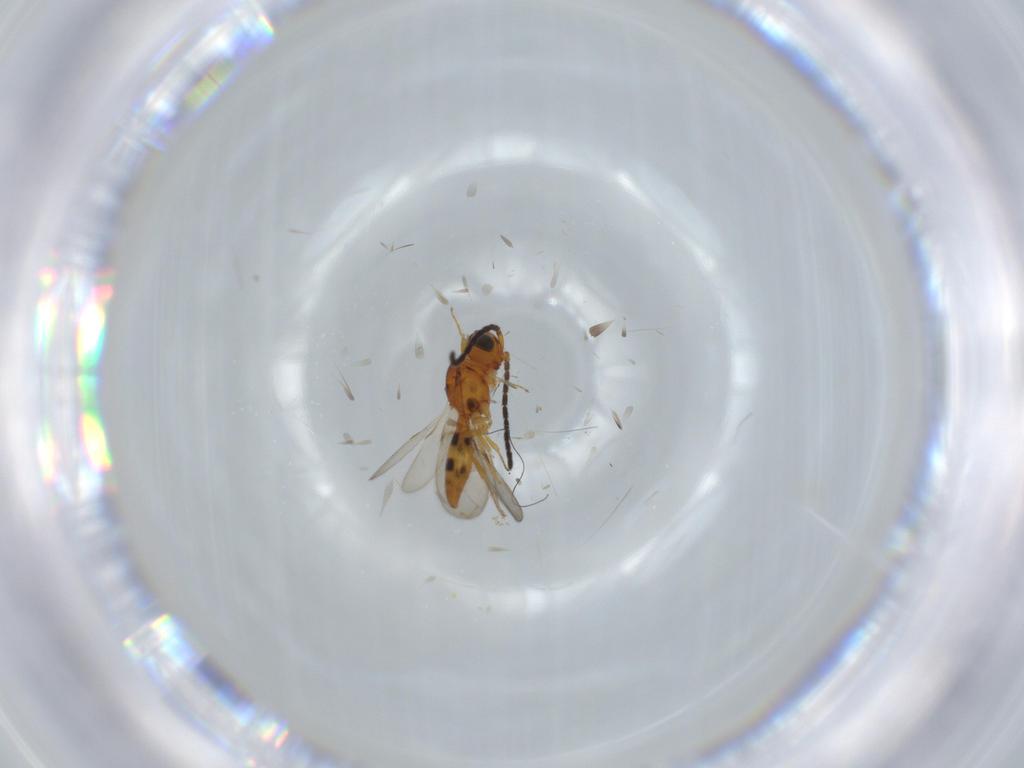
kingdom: Animalia
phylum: Arthropoda
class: Insecta
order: Hymenoptera
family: Scelionidae
